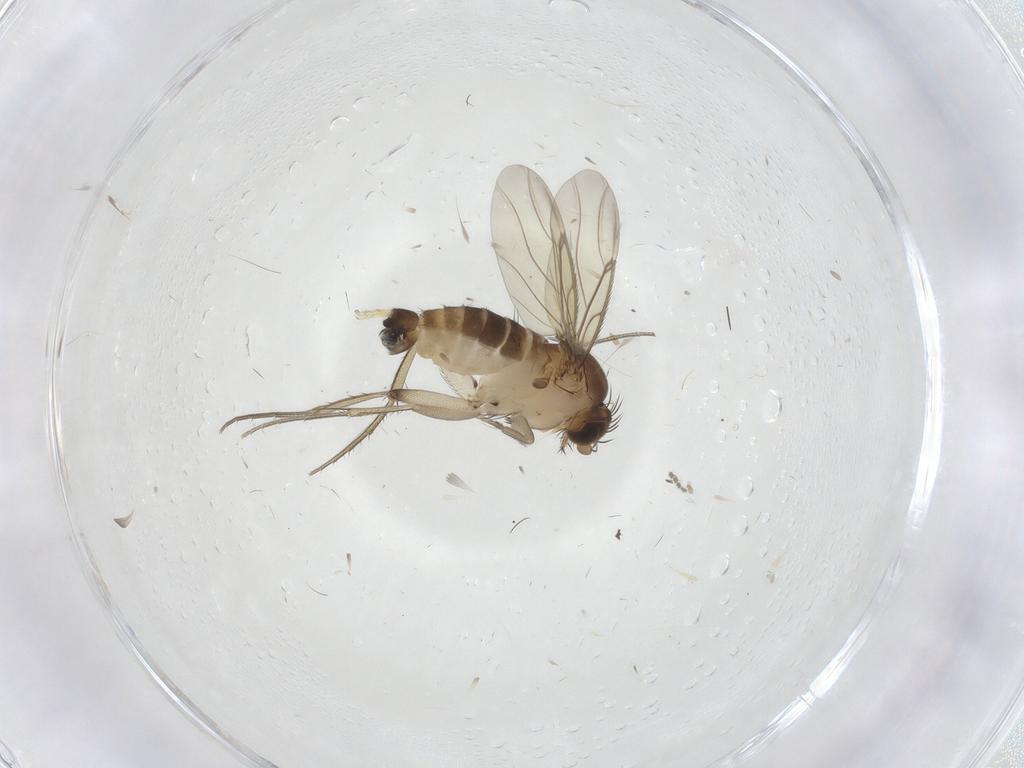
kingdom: Animalia
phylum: Arthropoda
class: Insecta
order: Diptera
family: Phoridae
